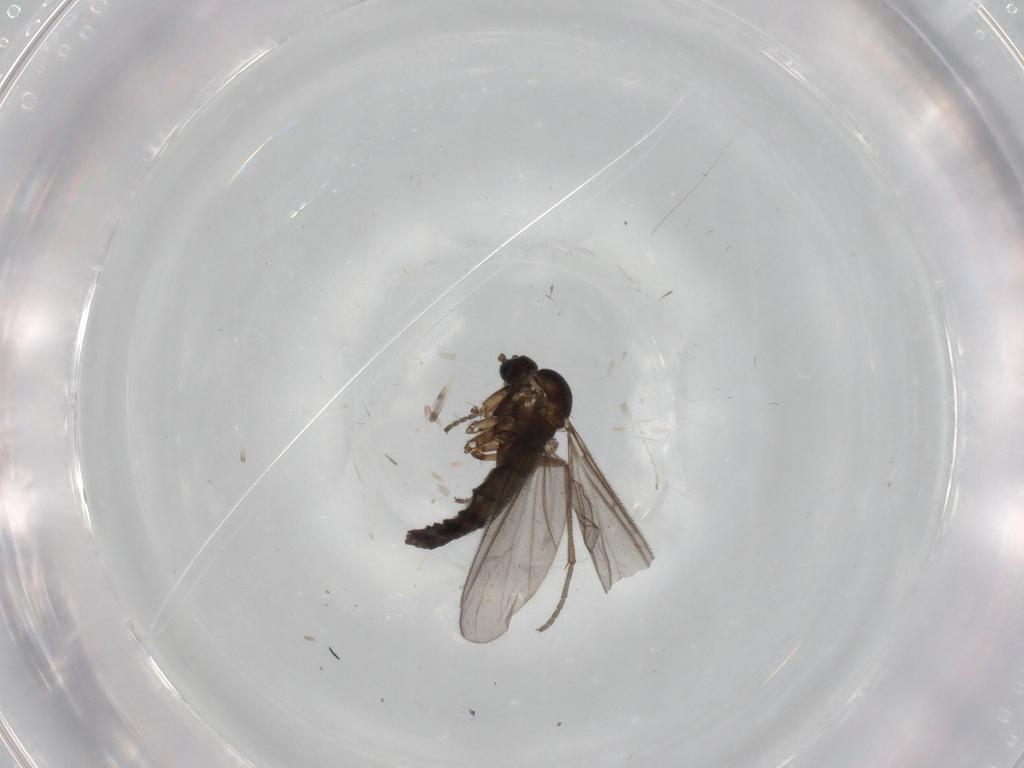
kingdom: Animalia
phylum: Arthropoda
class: Insecta
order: Diptera
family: Sciaridae
